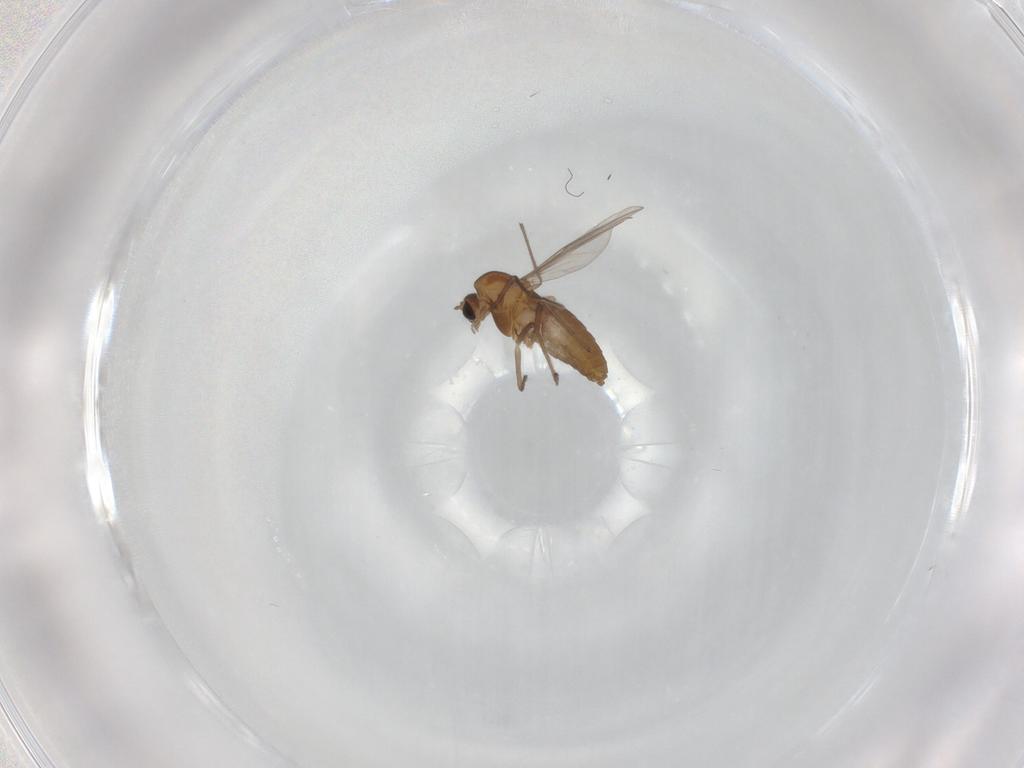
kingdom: Animalia
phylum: Arthropoda
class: Insecta
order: Diptera
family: Chironomidae
